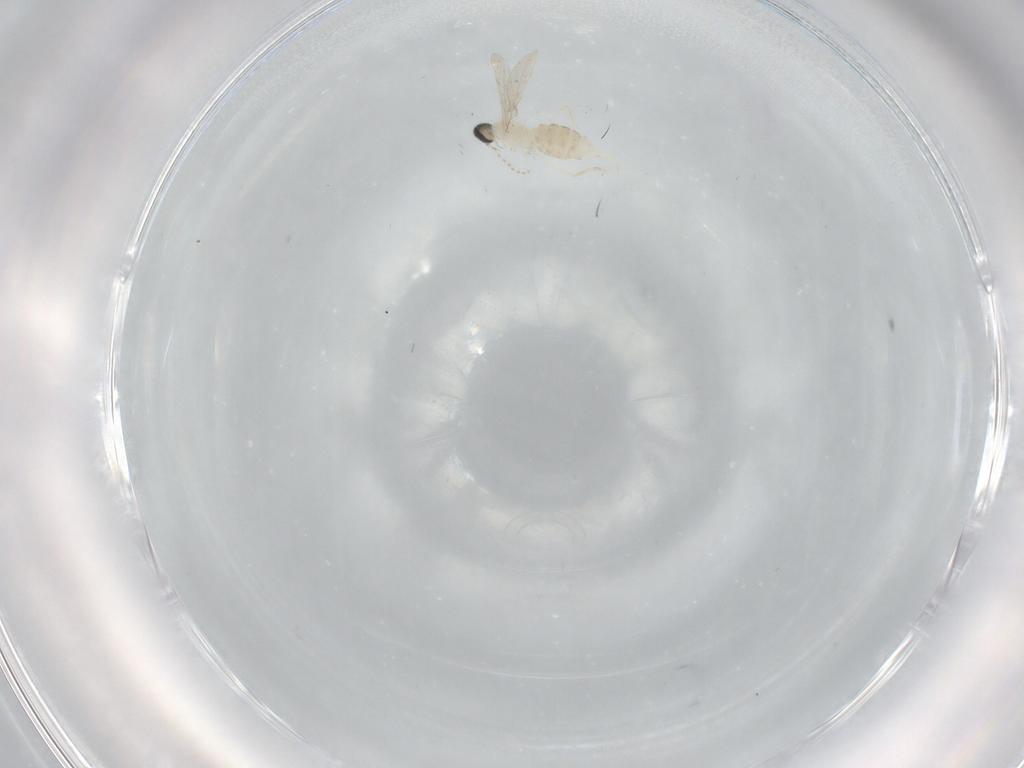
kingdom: Animalia
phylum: Arthropoda
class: Insecta
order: Diptera
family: Cecidomyiidae
